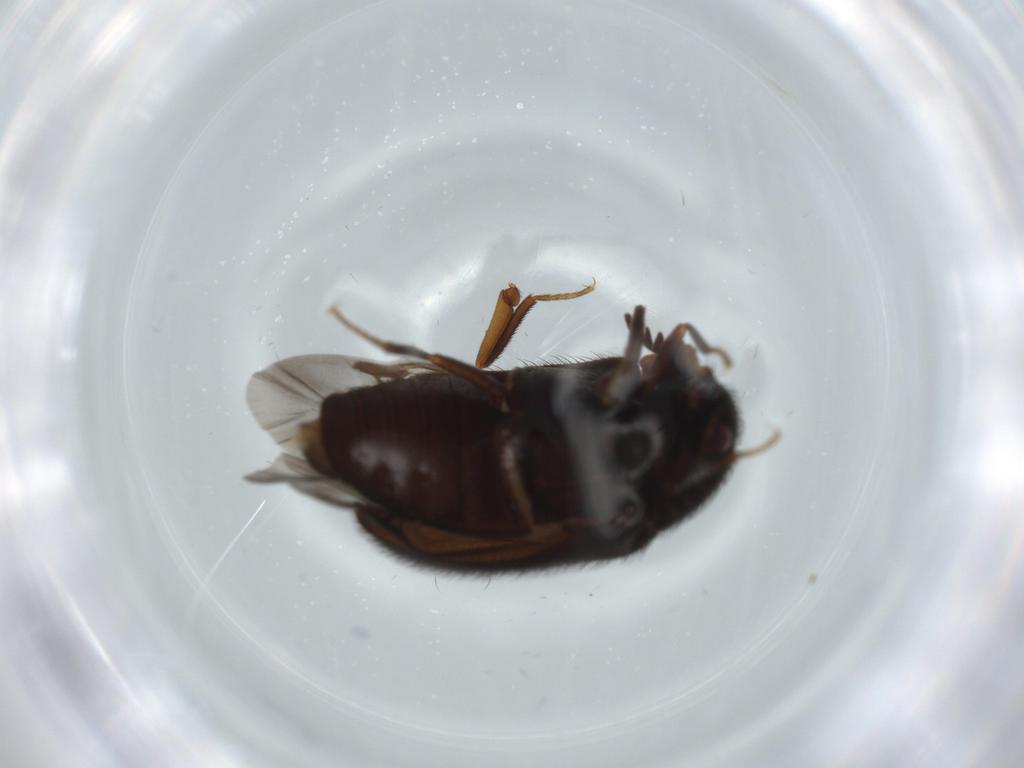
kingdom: Animalia
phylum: Arthropoda
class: Insecta
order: Coleoptera
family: Dermestidae
